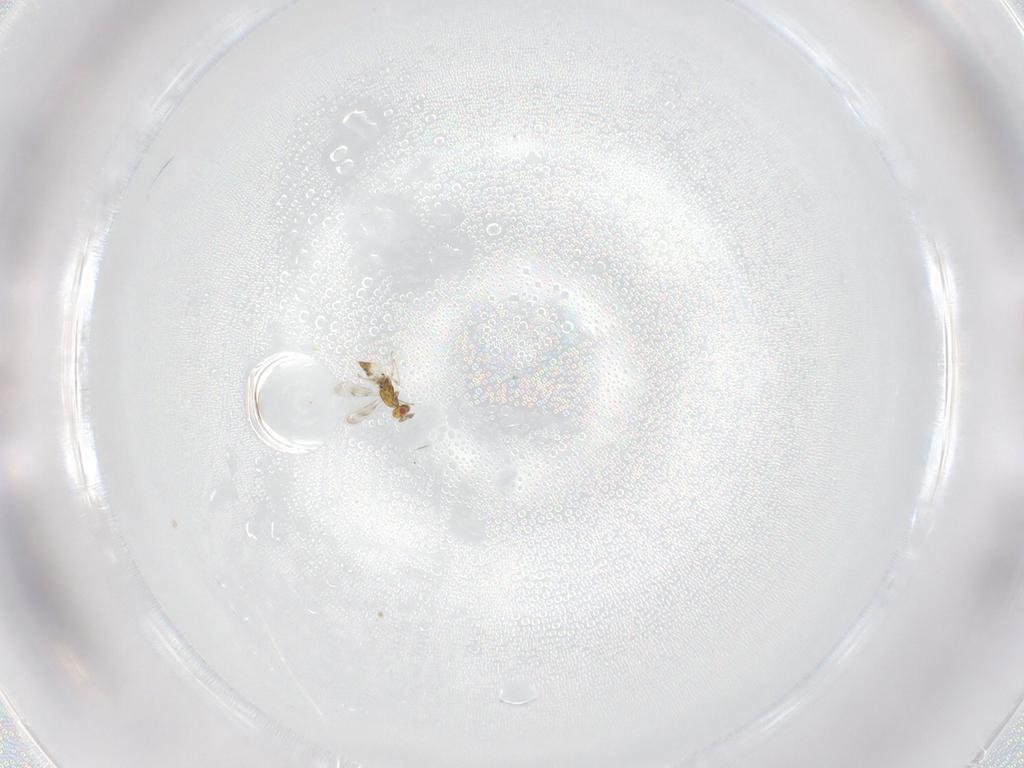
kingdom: Animalia
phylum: Arthropoda
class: Insecta
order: Hymenoptera
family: Eulophidae
